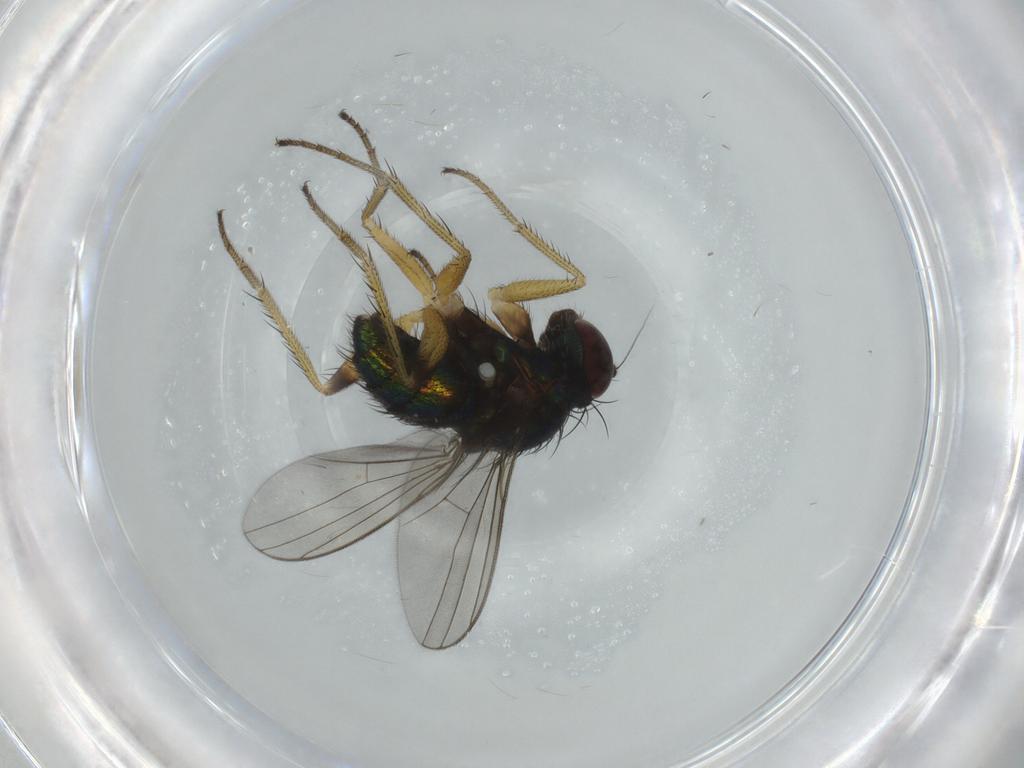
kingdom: Animalia
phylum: Arthropoda
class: Insecta
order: Diptera
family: Dolichopodidae
